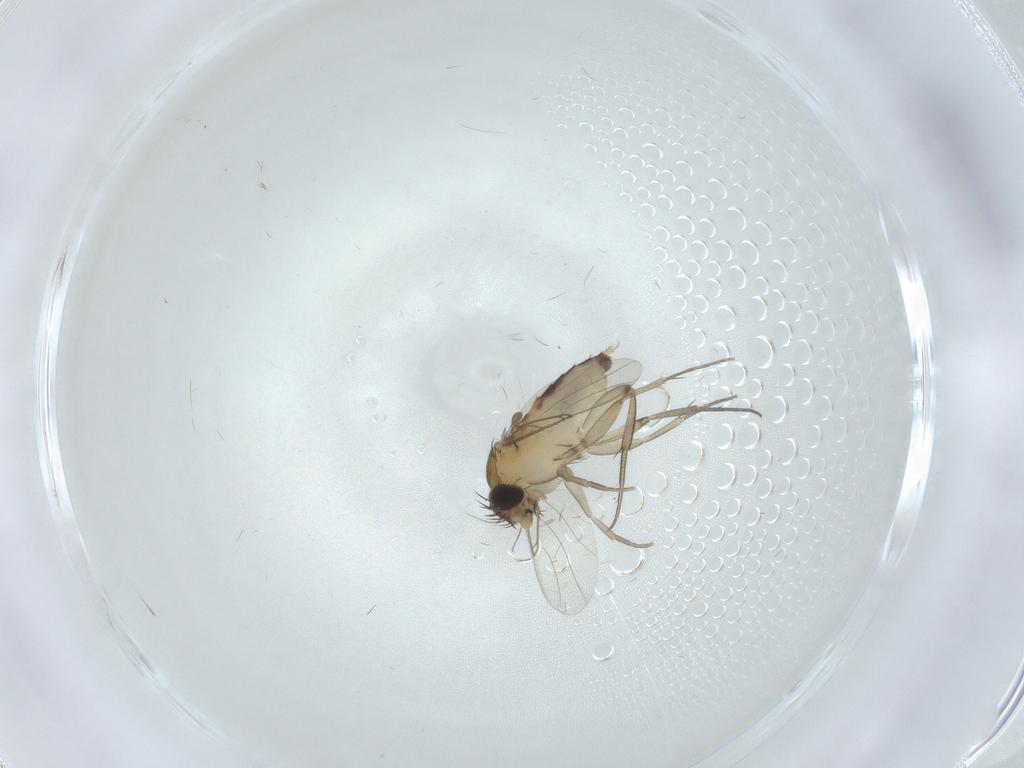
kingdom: Animalia
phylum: Arthropoda
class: Insecta
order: Diptera
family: Phoridae
